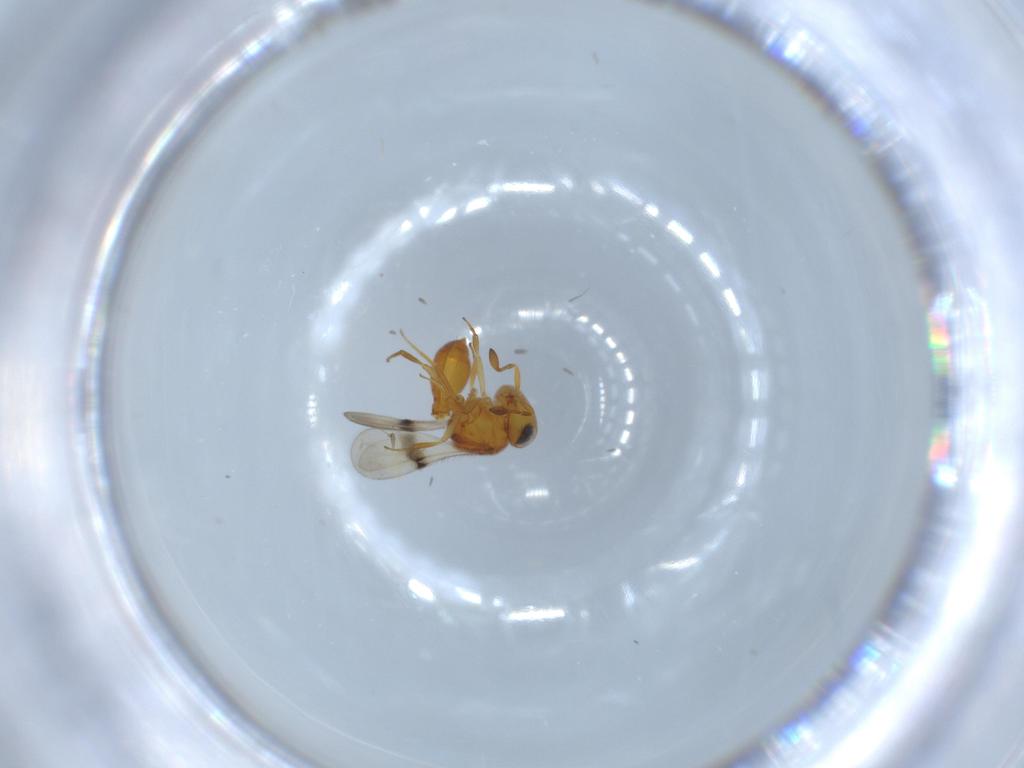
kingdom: Animalia
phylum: Arthropoda
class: Insecta
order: Hymenoptera
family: Scelionidae
